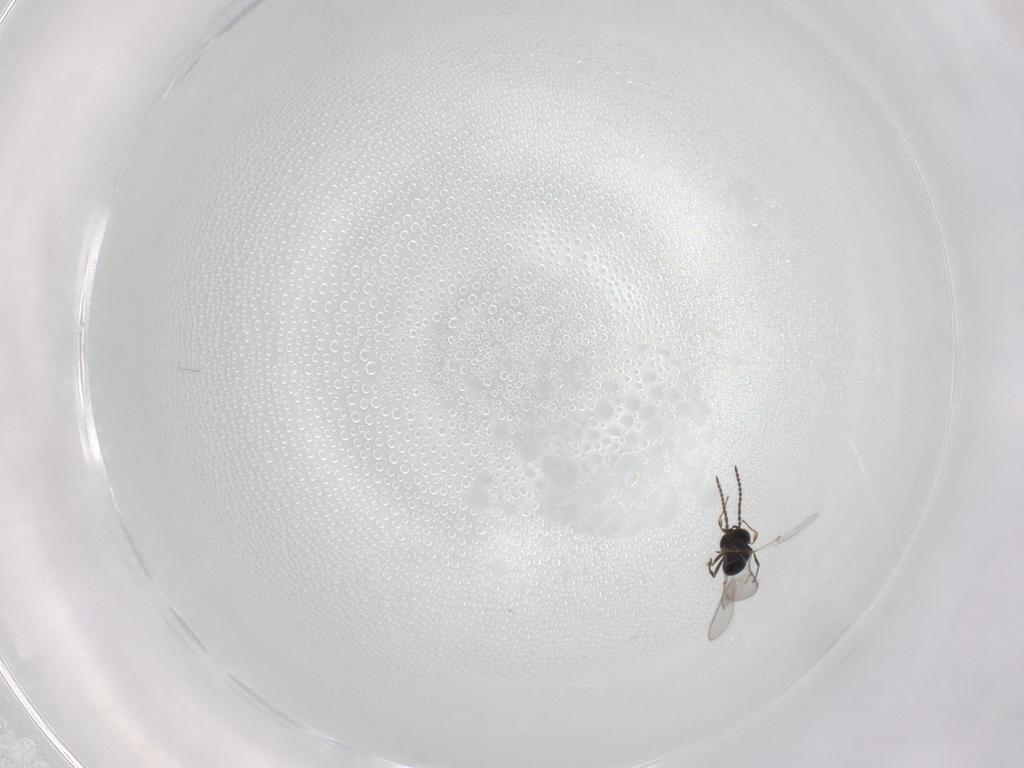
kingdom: Animalia
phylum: Arthropoda
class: Insecta
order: Hymenoptera
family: Scelionidae
